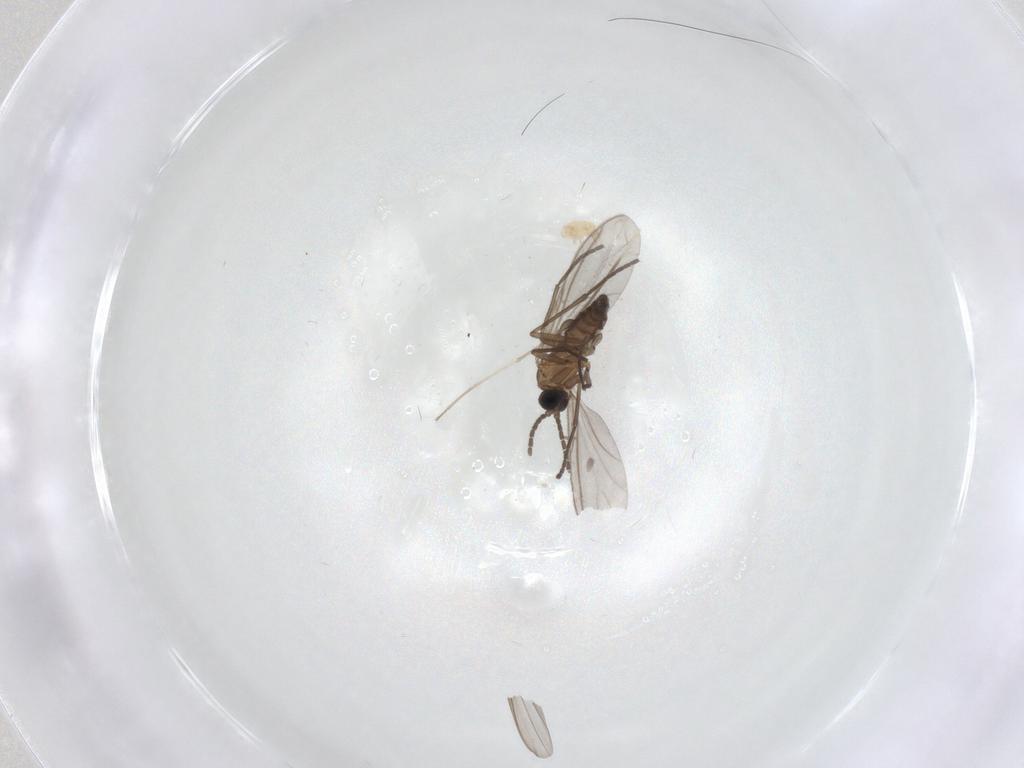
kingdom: Animalia
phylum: Arthropoda
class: Insecta
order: Diptera
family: Chironomidae
